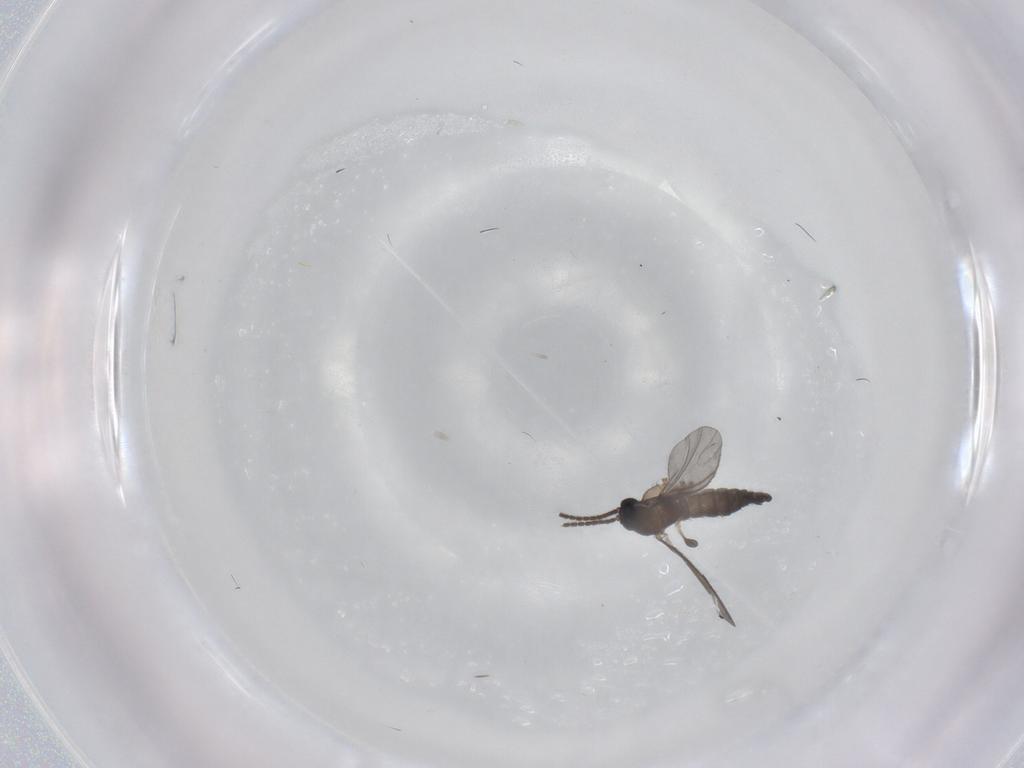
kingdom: Animalia
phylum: Arthropoda
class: Insecta
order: Diptera
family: Sciaridae
